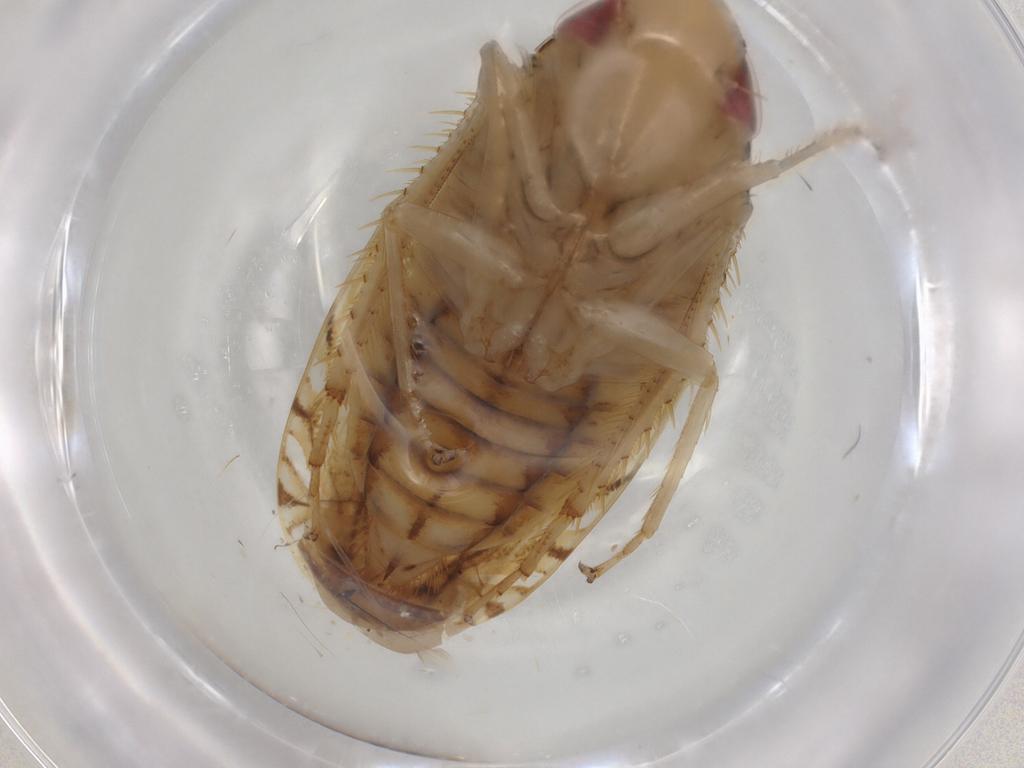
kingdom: Animalia
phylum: Arthropoda
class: Insecta
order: Hemiptera
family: Cicadellidae
